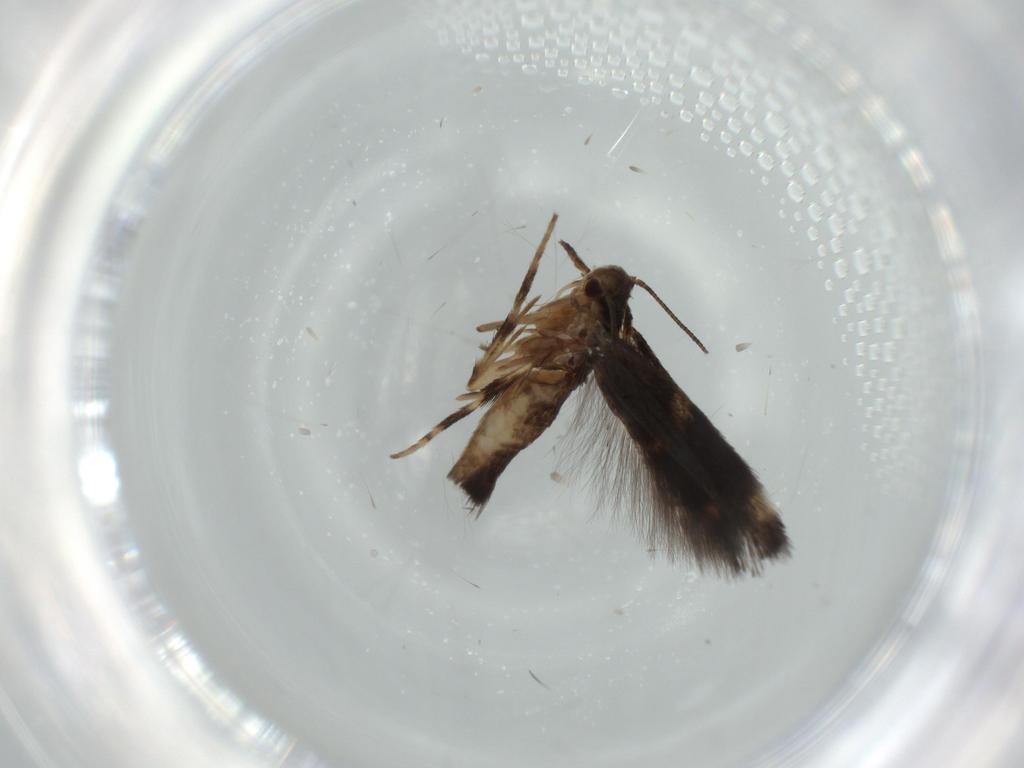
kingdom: Animalia
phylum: Arthropoda
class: Insecta
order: Lepidoptera
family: Cosmopterigidae
